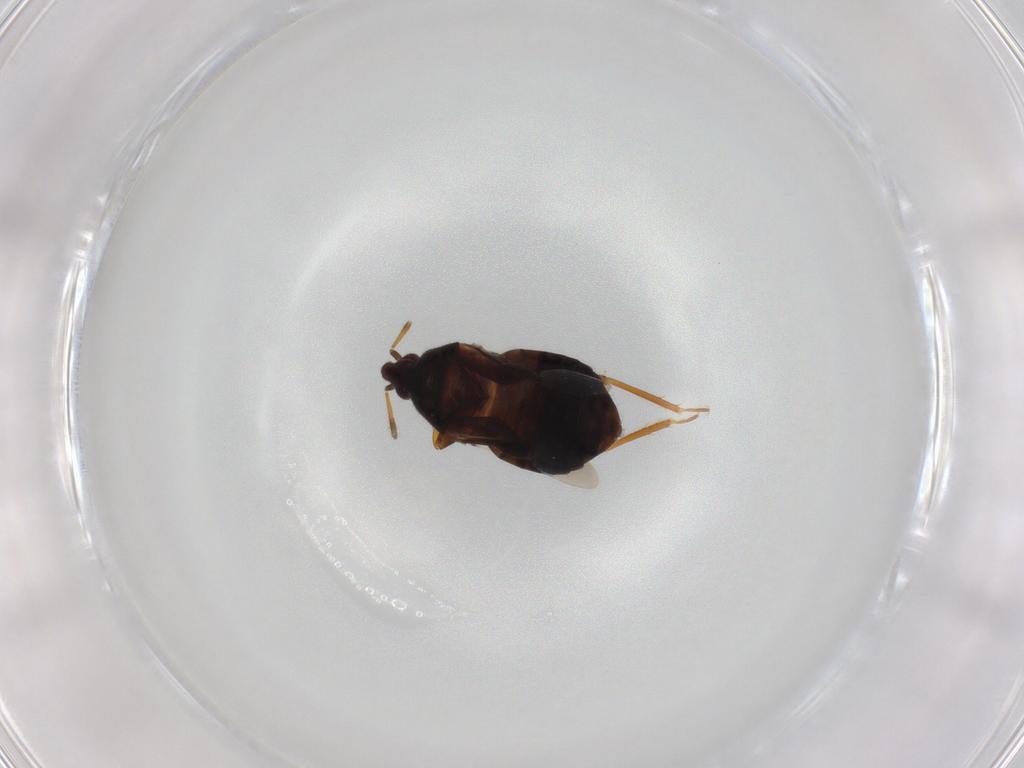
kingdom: Animalia
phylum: Arthropoda
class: Insecta
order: Hemiptera
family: Anthocoridae
